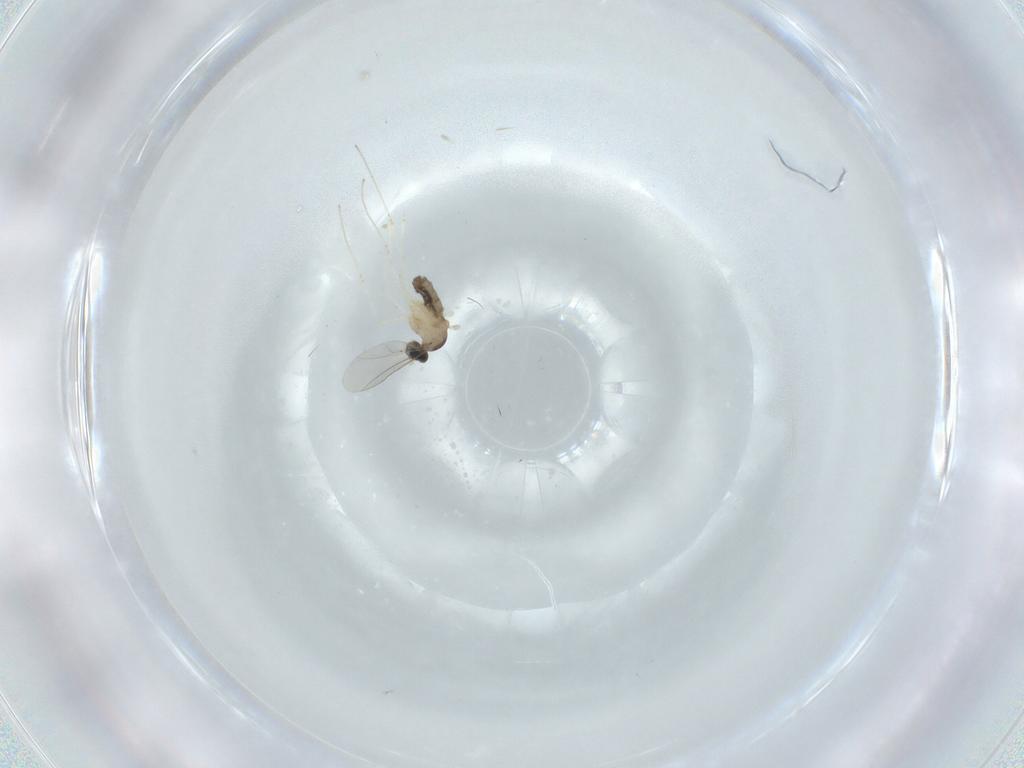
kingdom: Animalia
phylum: Arthropoda
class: Insecta
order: Diptera
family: Cecidomyiidae
